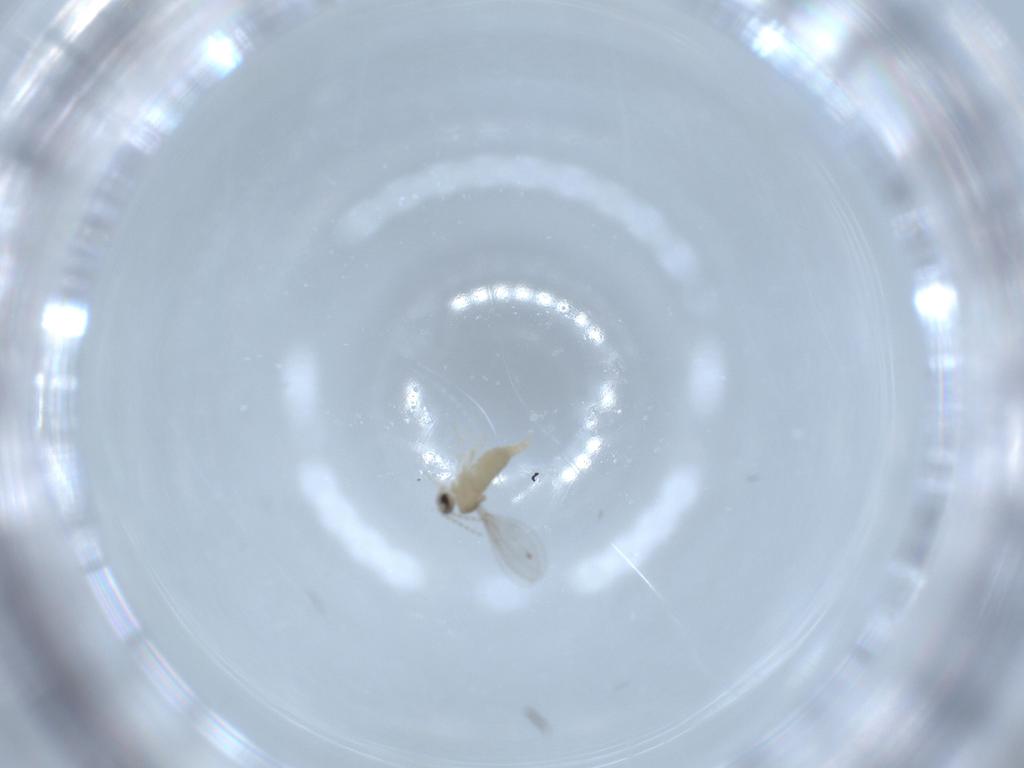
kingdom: Animalia
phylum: Arthropoda
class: Insecta
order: Diptera
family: Cecidomyiidae
